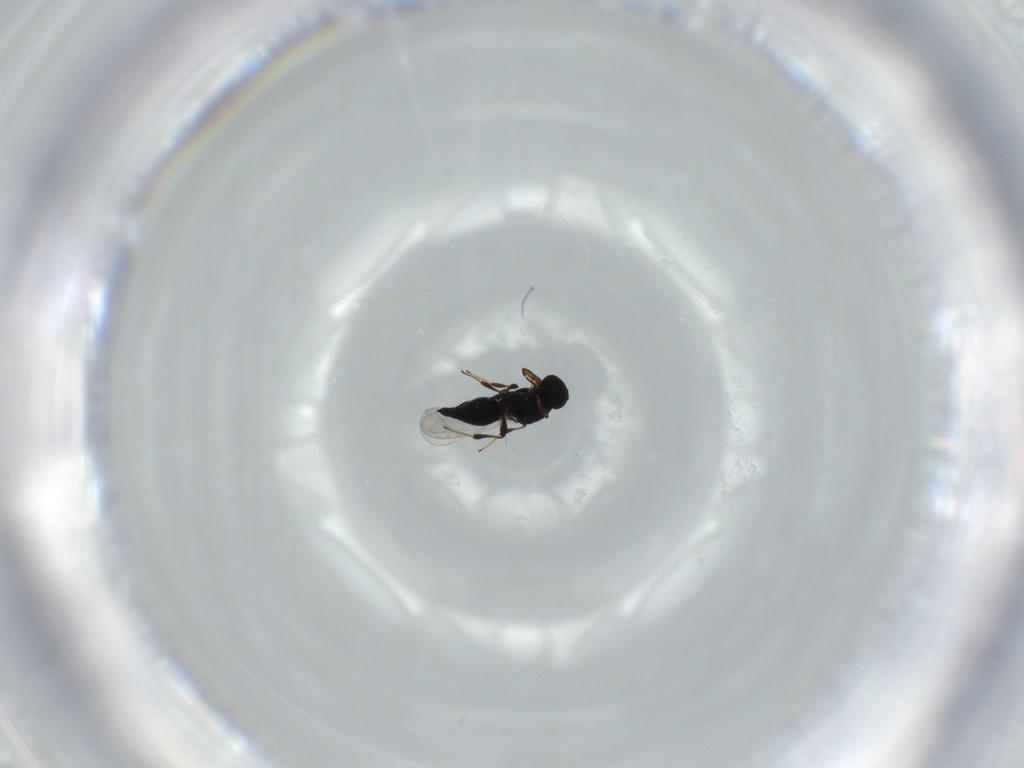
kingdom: Animalia
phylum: Arthropoda
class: Insecta
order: Hymenoptera
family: Platygastridae
